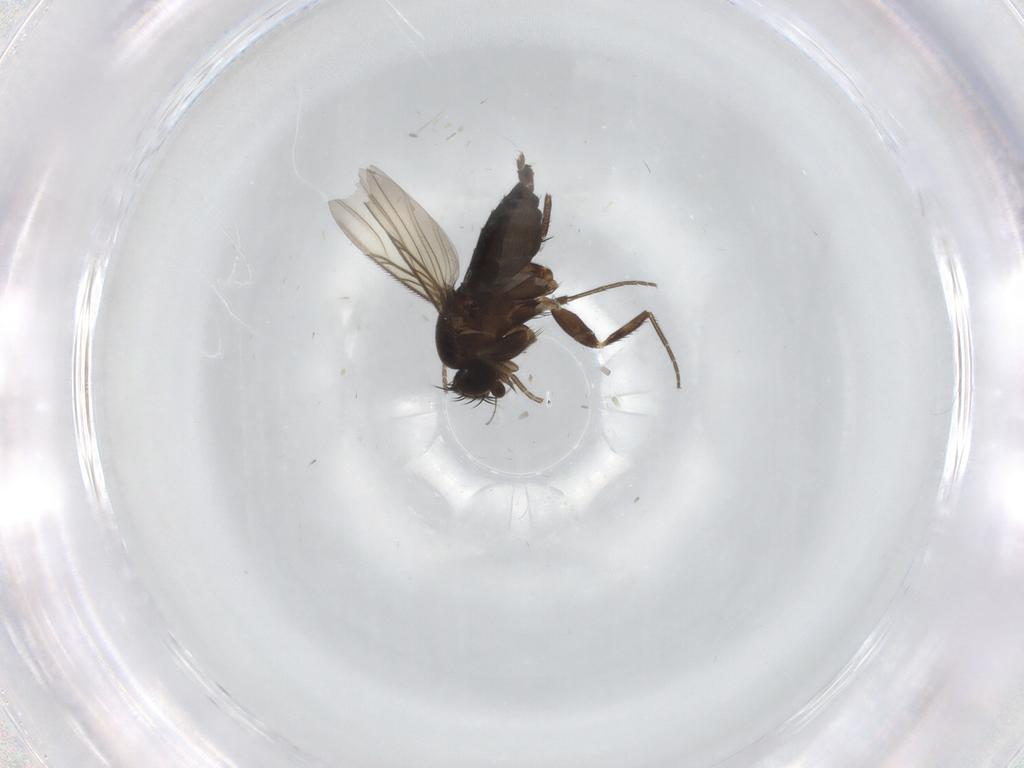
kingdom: Animalia
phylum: Arthropoda
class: Insecta
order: Diptera
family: Phoridae
